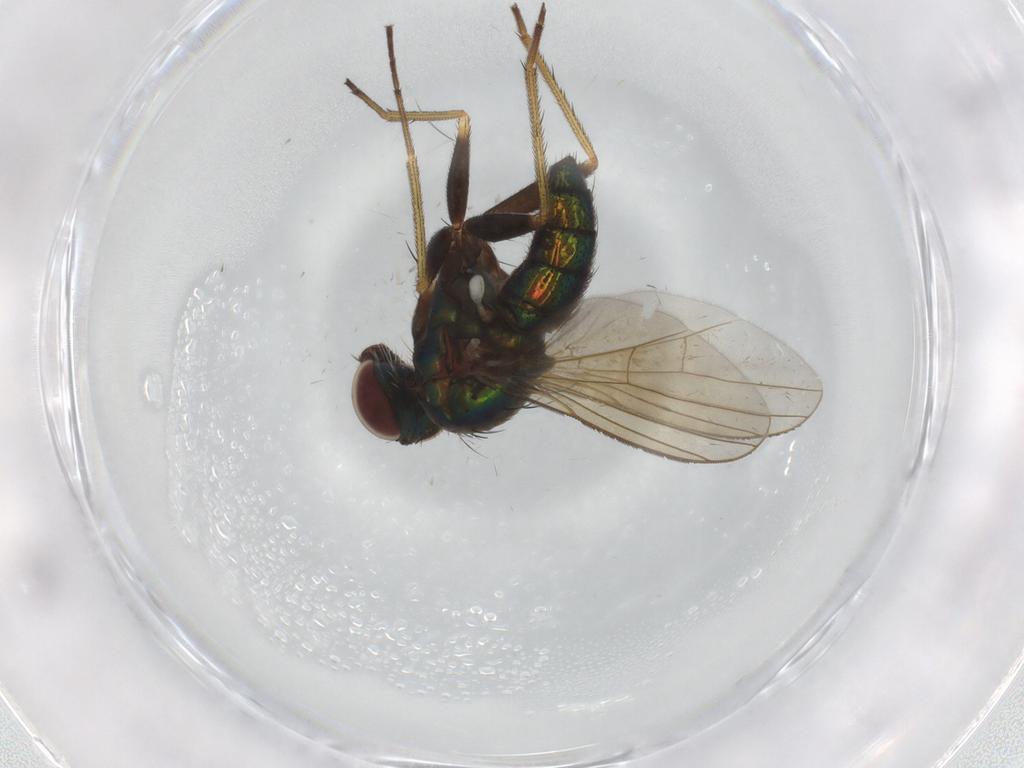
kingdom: Animalia
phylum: Arthropoda
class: Insecta
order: Diptera
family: Dolichopodidae
